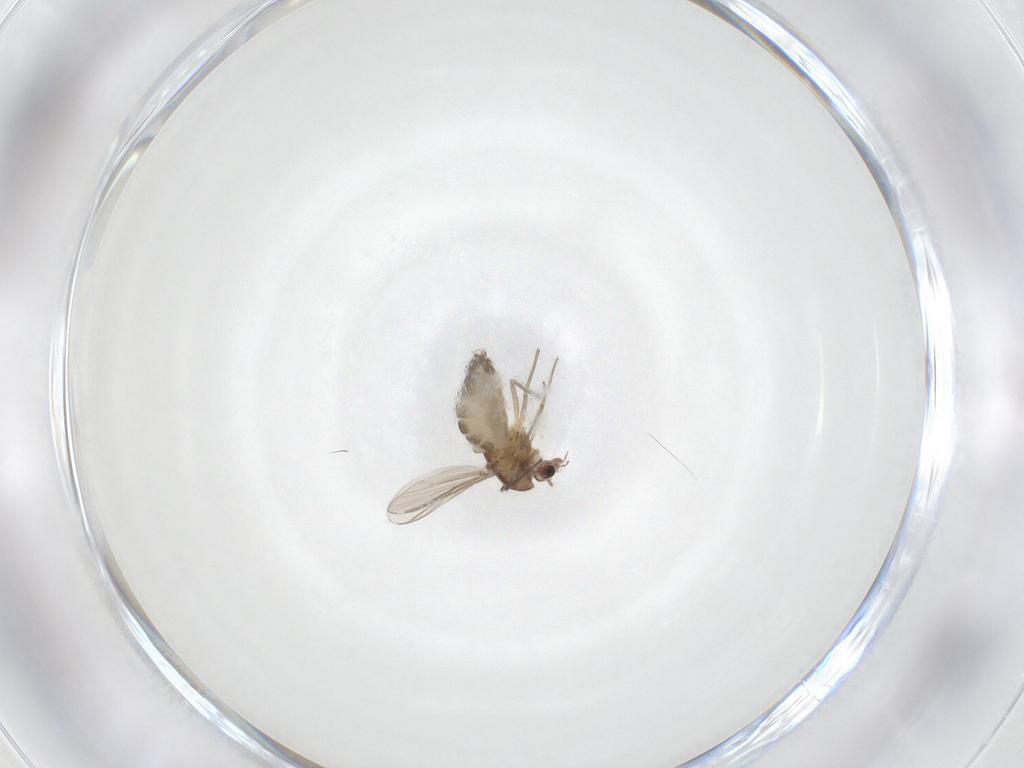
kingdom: Animalia
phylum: Arthropoda
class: Insecta
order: Diptera
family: Chironomidae
